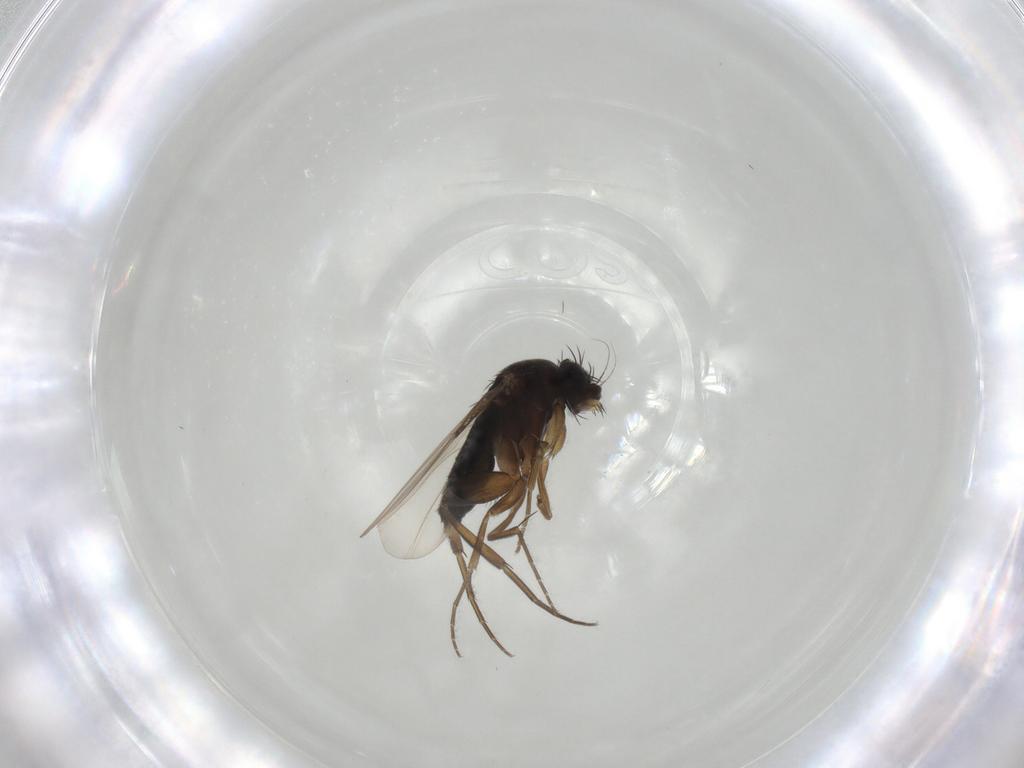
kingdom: Animalia
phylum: Arthropoda
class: Insecta
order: Diptera
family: Phoridae
